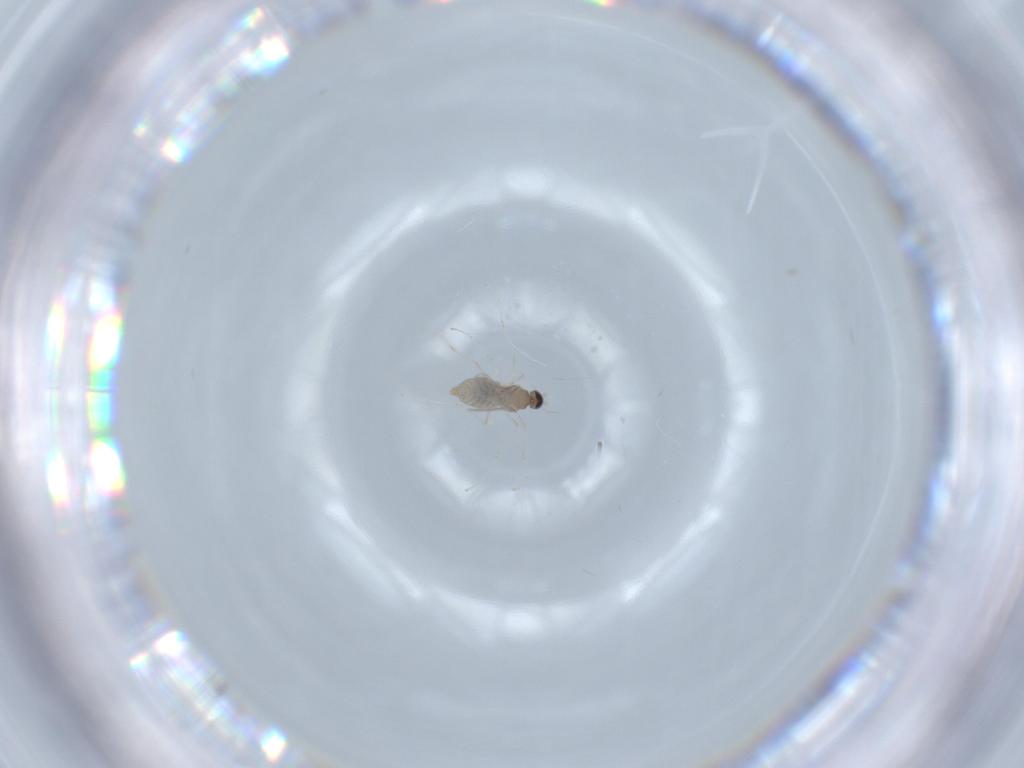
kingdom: Animalia
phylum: Arthropoda
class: Insecta
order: Diptera
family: Cecidomyiidae
